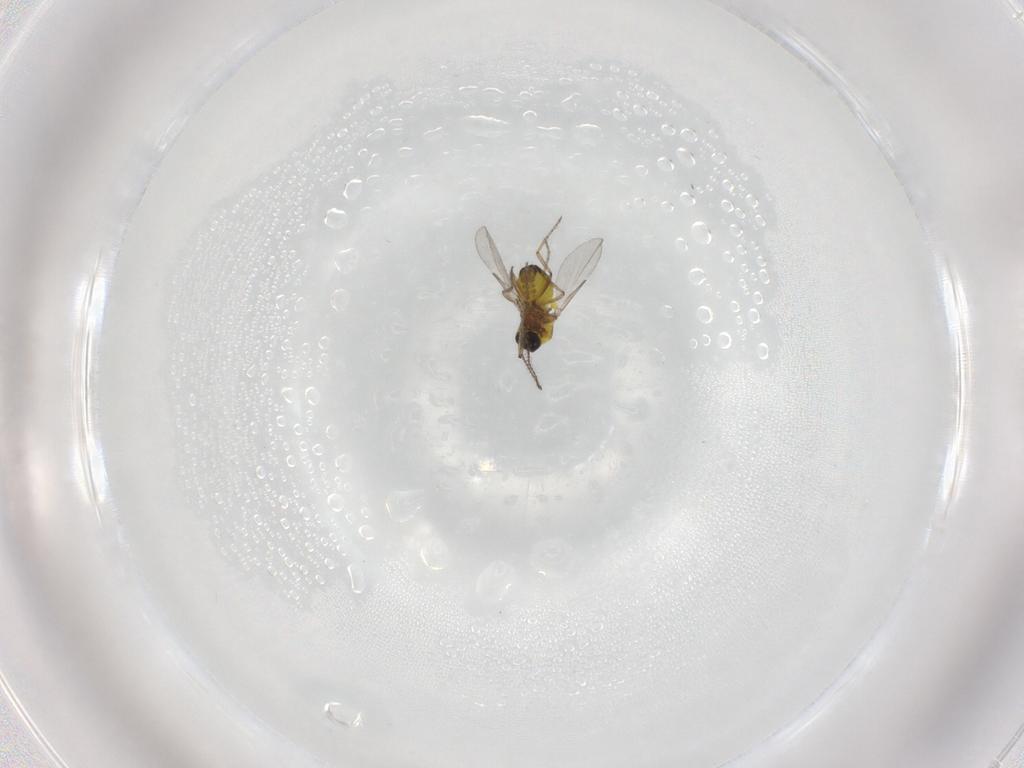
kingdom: Animalia
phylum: Arthropoda
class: Insecta
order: Diptera
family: Ceratopogonidae
